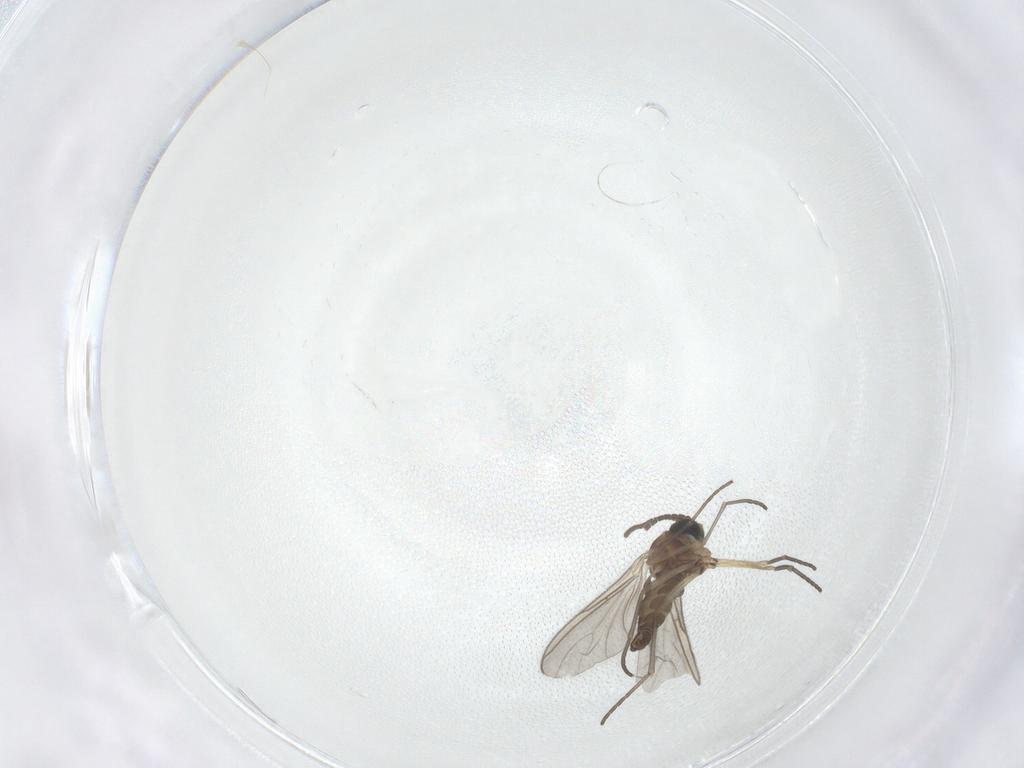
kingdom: Animalia
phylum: Arthropoda
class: Insecta
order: Diptera
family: Sciaridae
